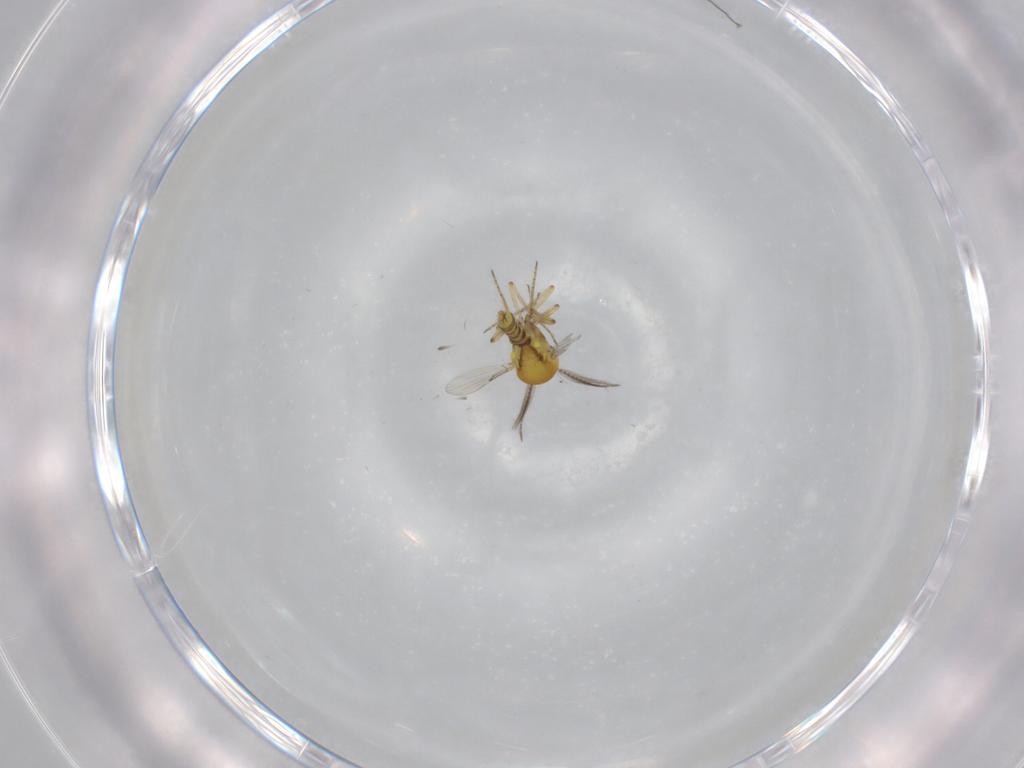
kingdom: Animalia
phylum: Arthropoda
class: Insecta
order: Diptera
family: Ceratopogonidae
